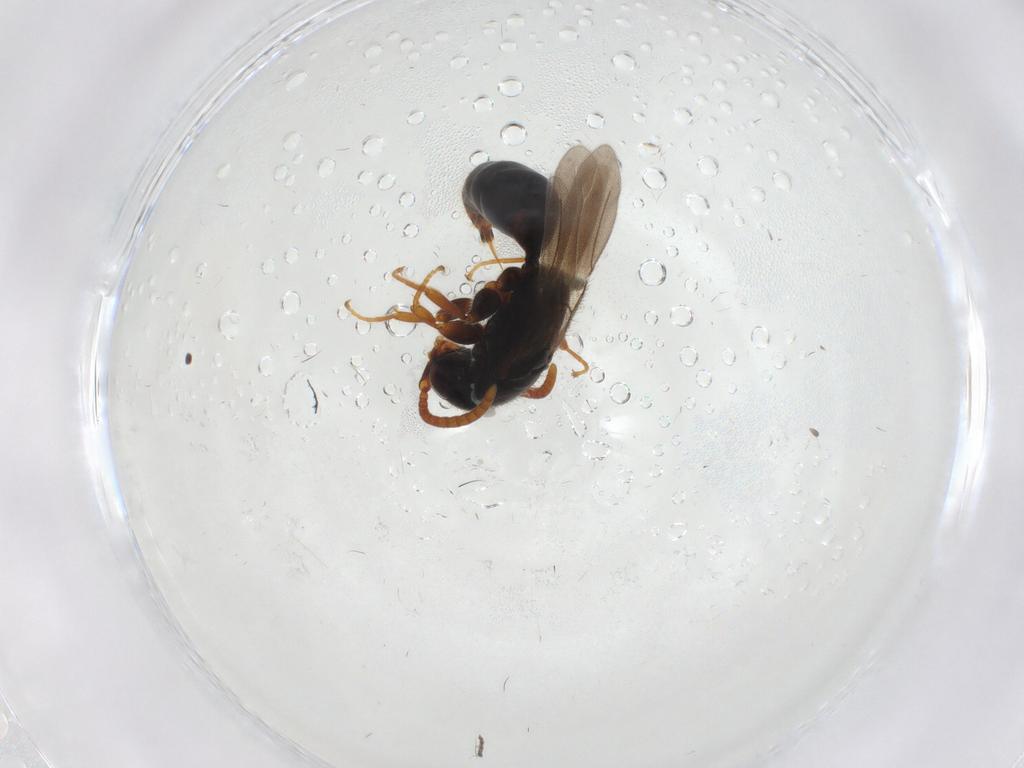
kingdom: Animalia
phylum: Arthropoda
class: Insecta
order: Hymenoptera
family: Bethylidae
